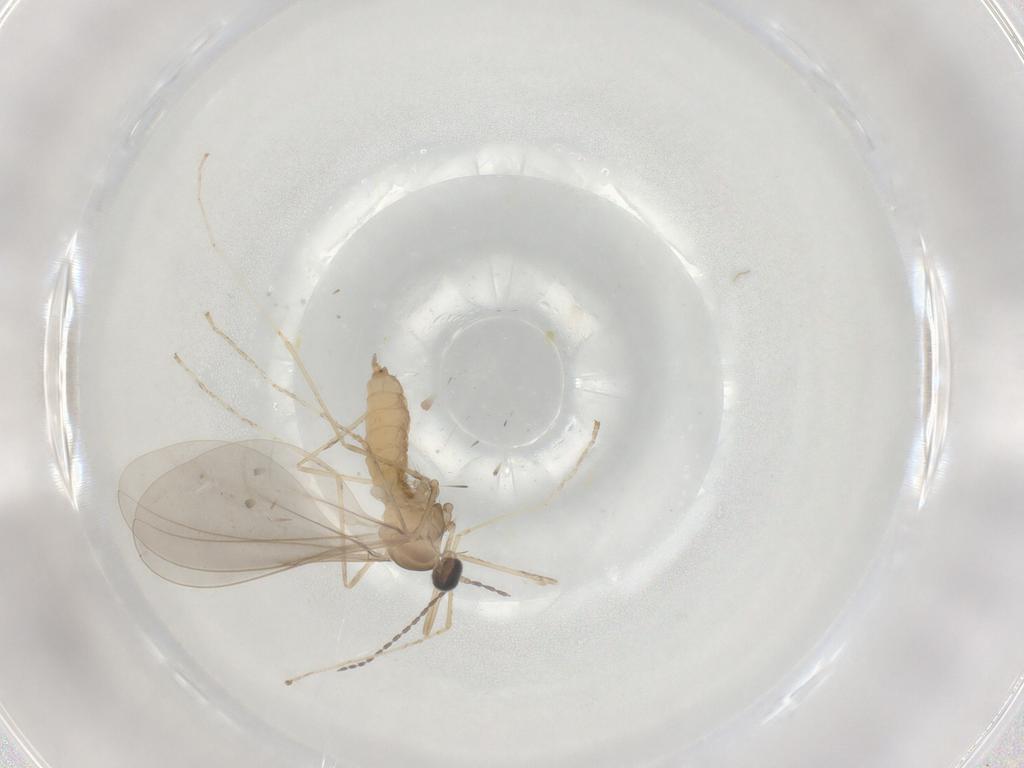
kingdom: Animalia
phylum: Arthropoda
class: Insecta
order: Diptera
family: Cecidomyiidae
